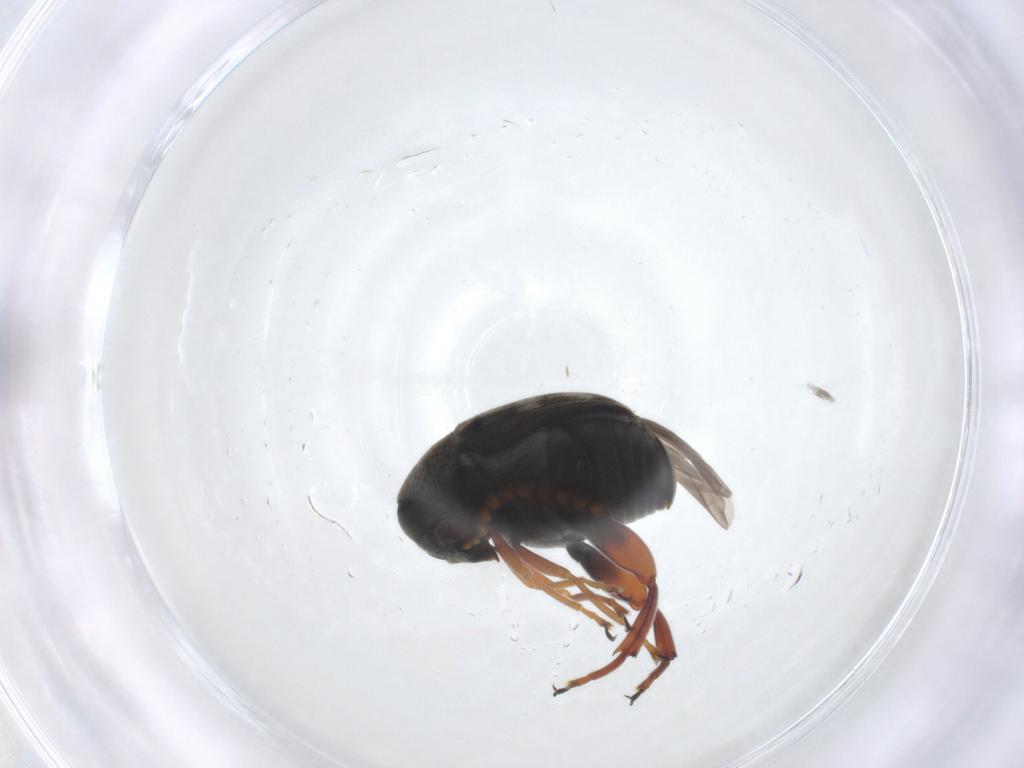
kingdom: Animalia
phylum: Arthropoda
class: Insecta
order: Coleoptera
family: Chrysomelidae
